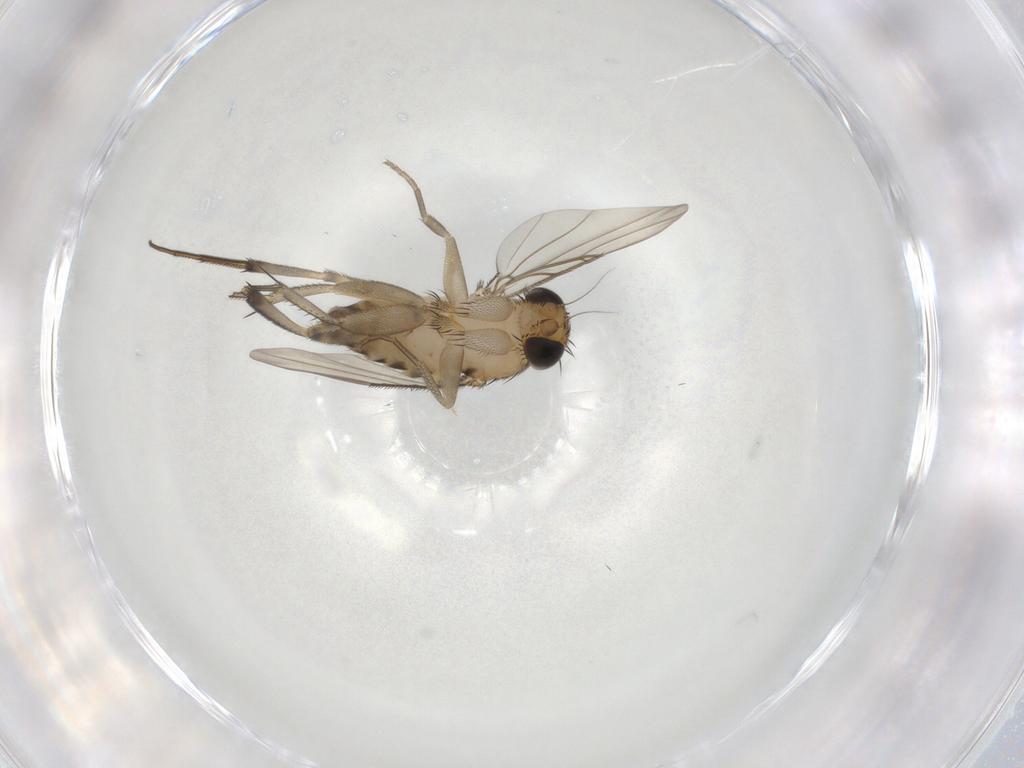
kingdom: Animalia
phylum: Arthropoda
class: Insecta
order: Diptera
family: Phoridae
